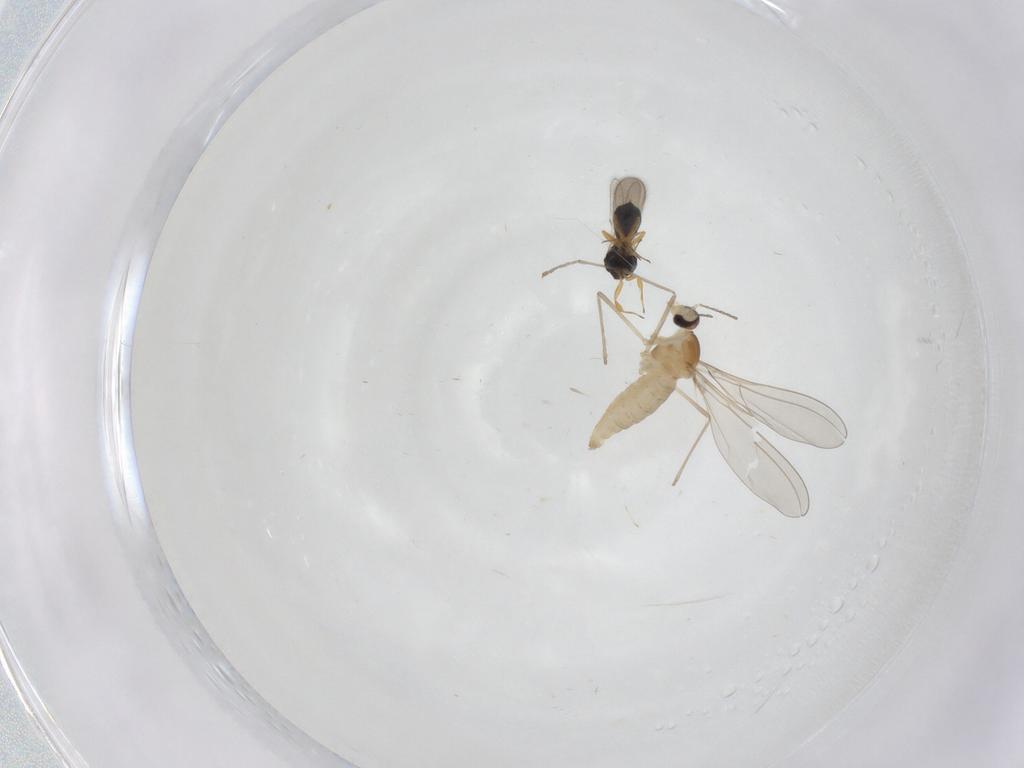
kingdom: Animalia
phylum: Arthropoda
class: Insecta
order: Diptera
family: Cecidomyiidae
